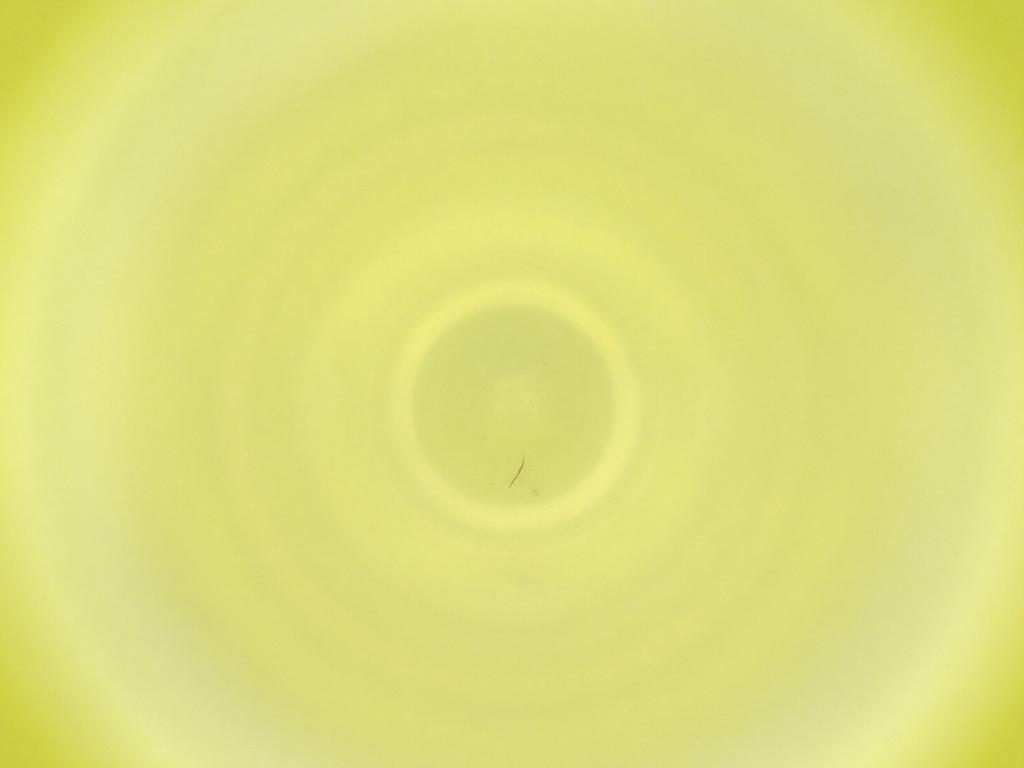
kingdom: Animalia
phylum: Arthropoda
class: Insecta
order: Diptera
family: Cecidomyiidae
